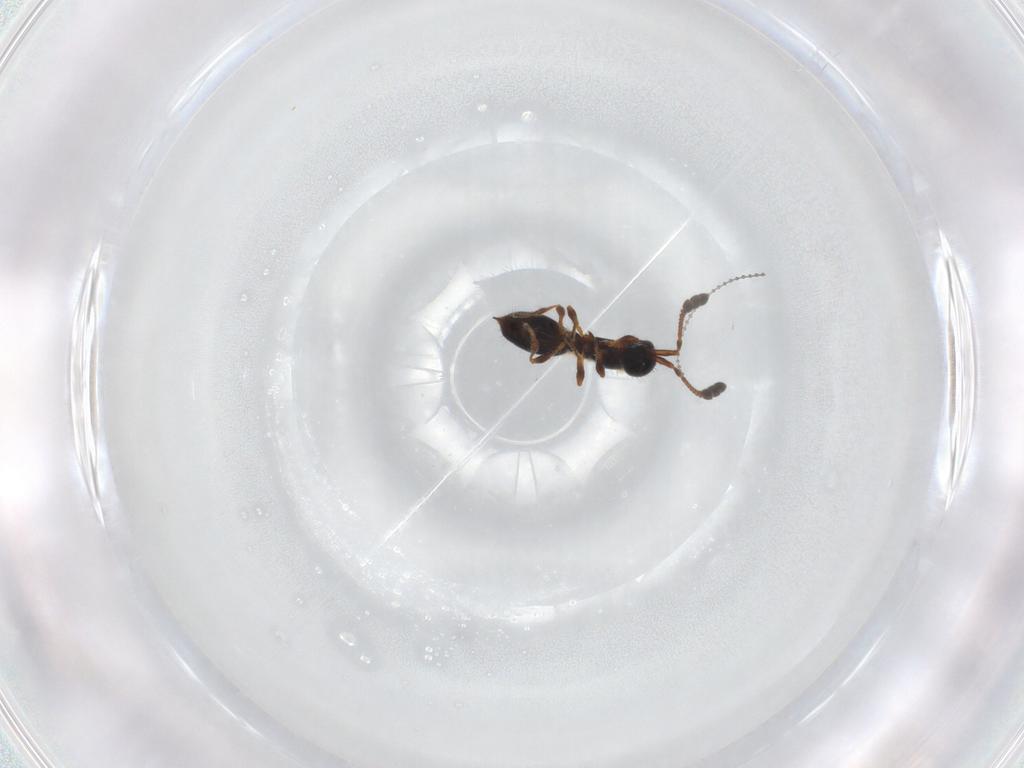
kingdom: Animalia
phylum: Arthropoda
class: Insecta
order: Hymenoptera
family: Diapriidae
